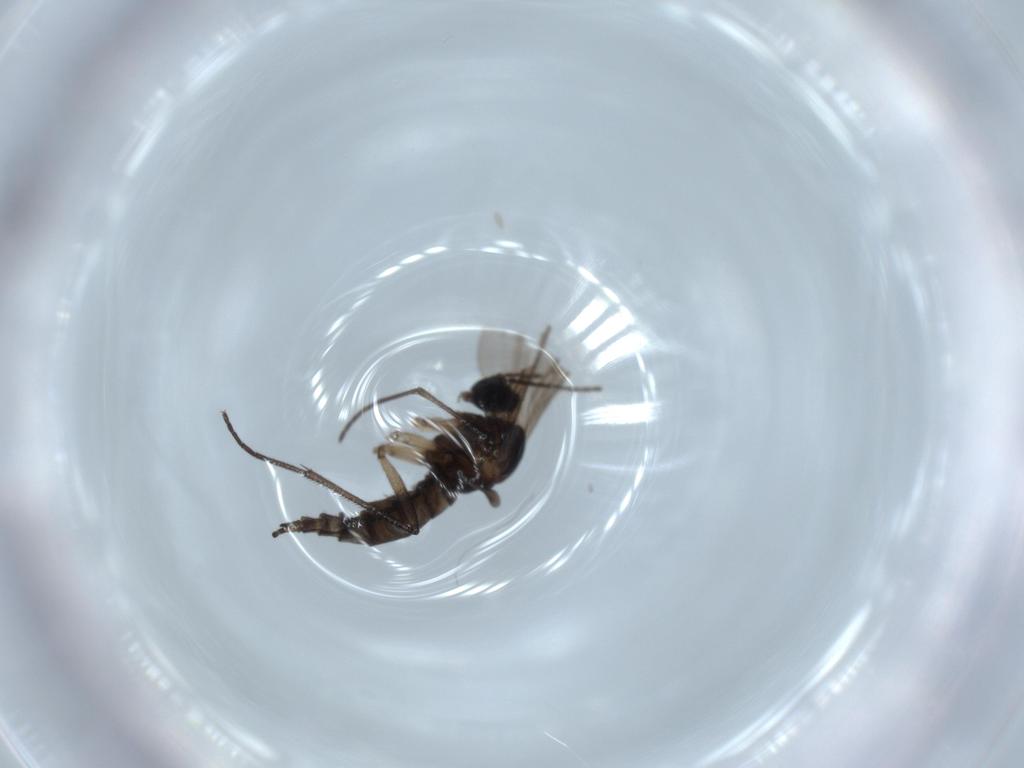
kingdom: Animalia
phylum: Arthropoda
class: Insecta
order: Diptera
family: Sciaridae
